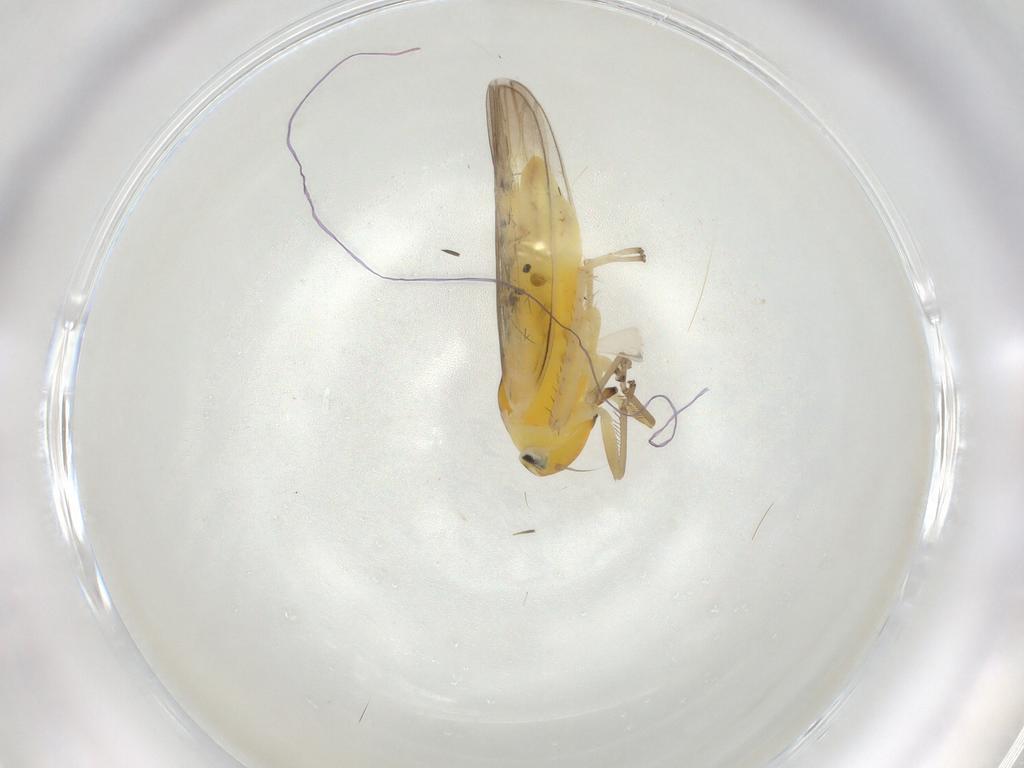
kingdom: Animalia
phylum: Arthropoda
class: Insecta
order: Hemiptera
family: Cicadellidae
